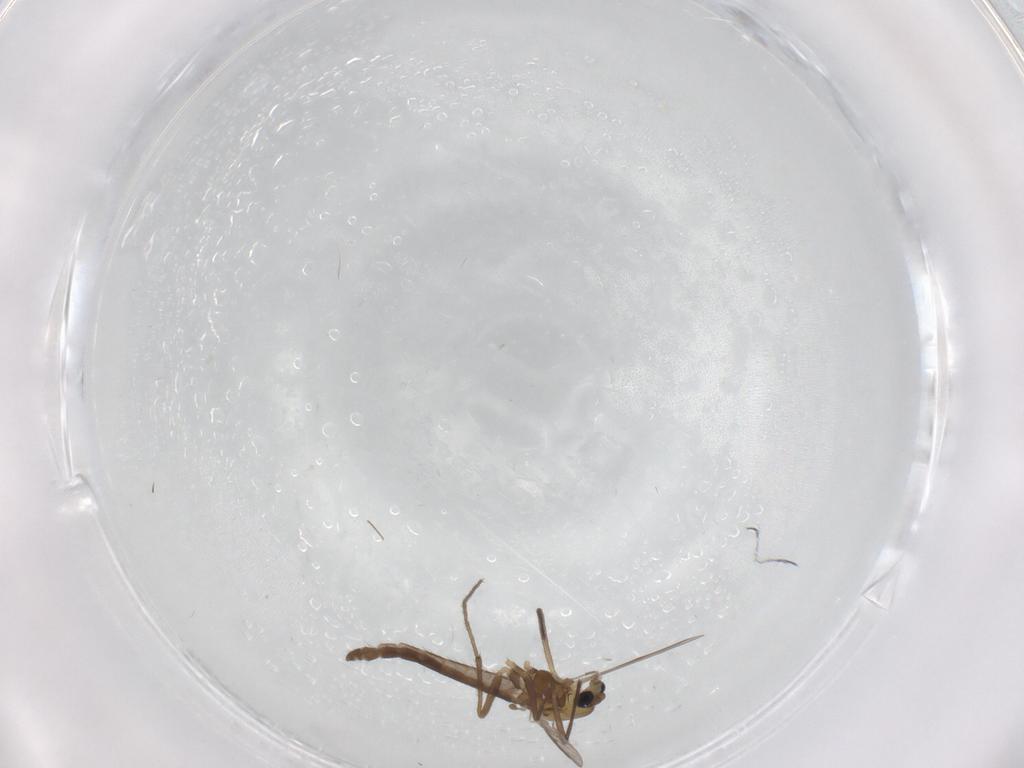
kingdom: Animalia
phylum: Arthropoda
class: Insecta
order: Diptera
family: Chironomidae
